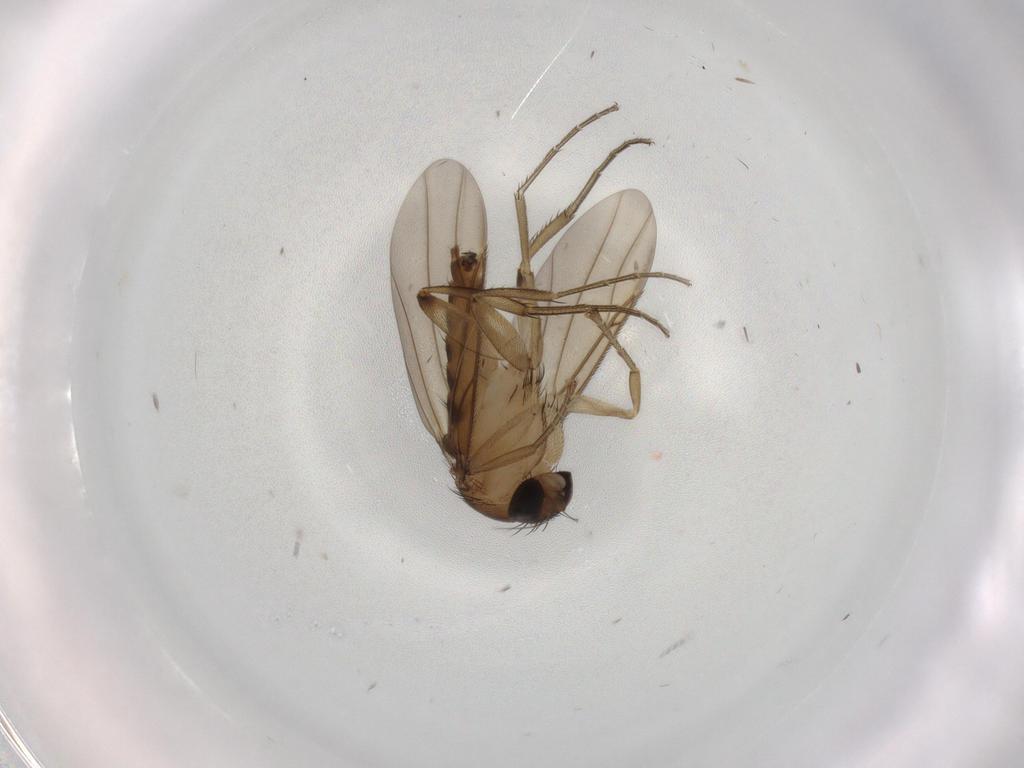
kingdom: Animalia
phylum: Arthropoda
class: Insecta
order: Diptera
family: Phoridae
